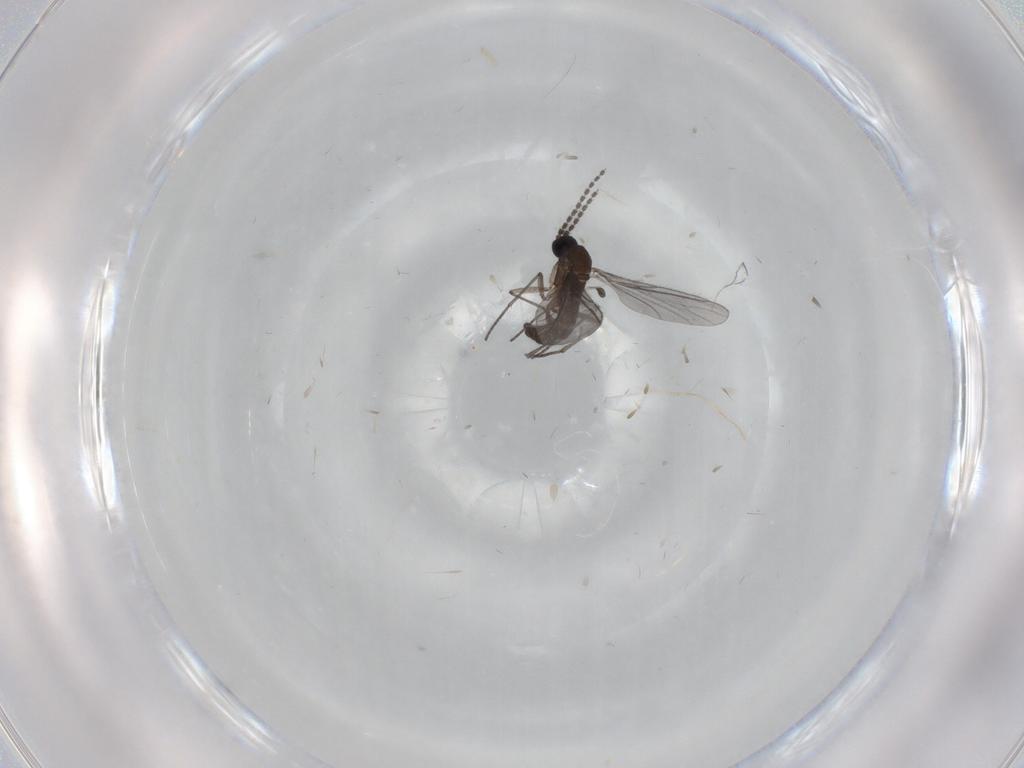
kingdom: Animalia
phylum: Arthropoda
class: Insecta
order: Diptera
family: Sciaridae
